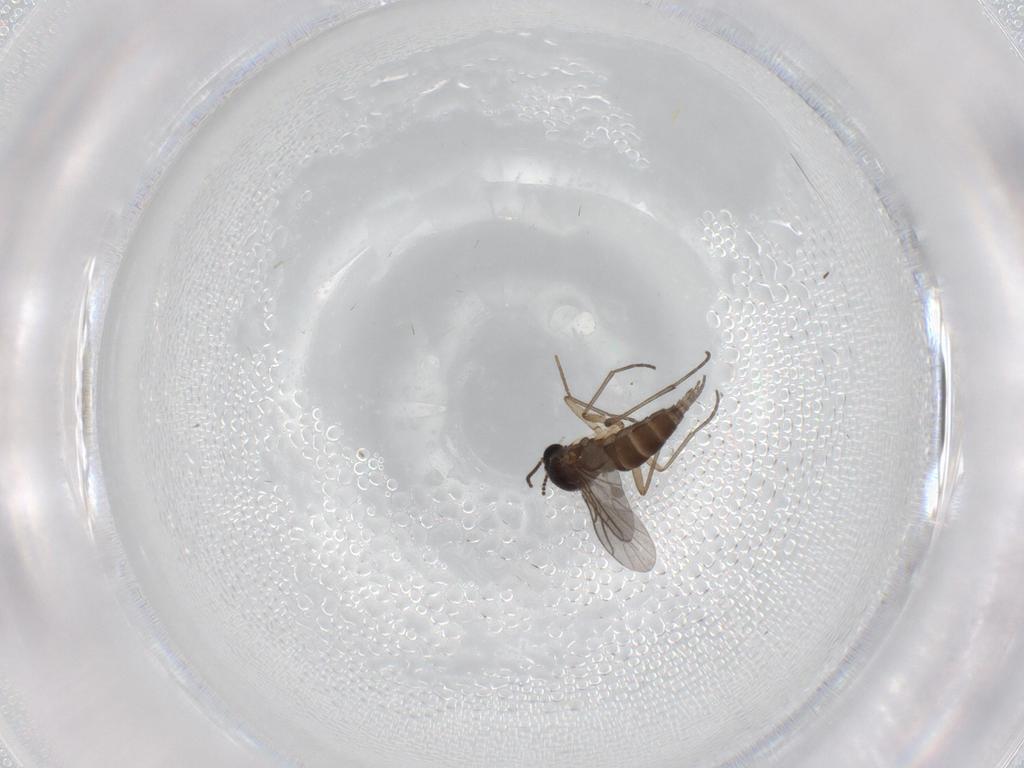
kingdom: Animalia
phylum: Arthropoda
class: Insecta
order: Diptera
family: Sciaridae
